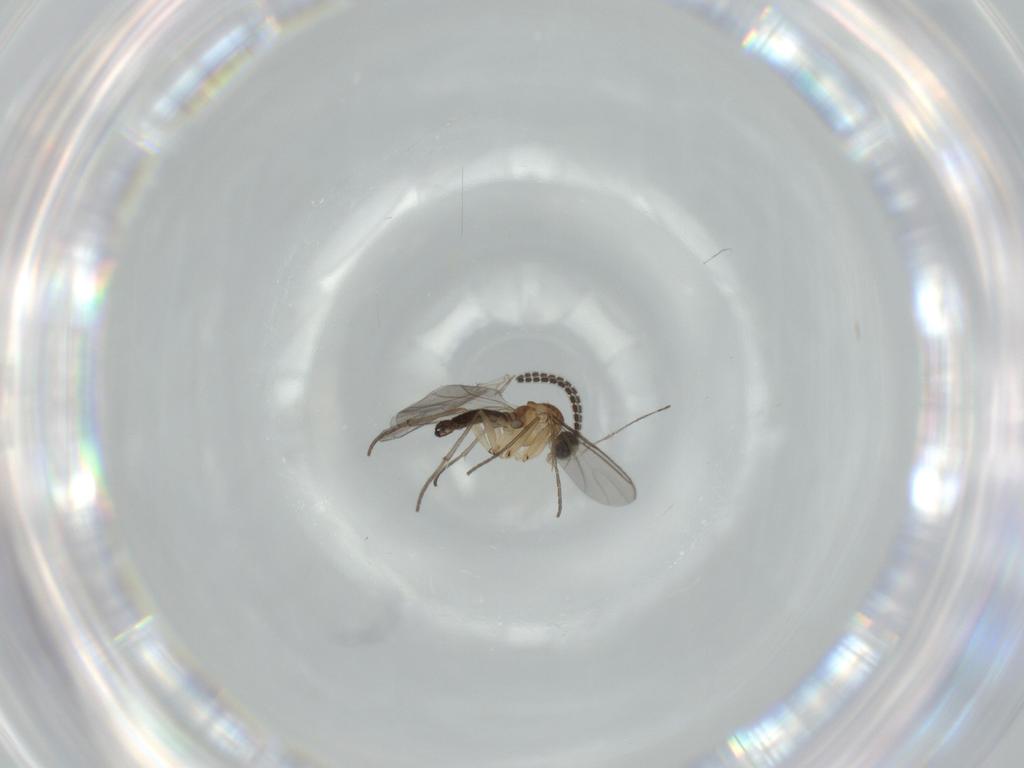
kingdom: Animalia
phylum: Arthropoda
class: Insecta
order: Diptera
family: Sciaridae
